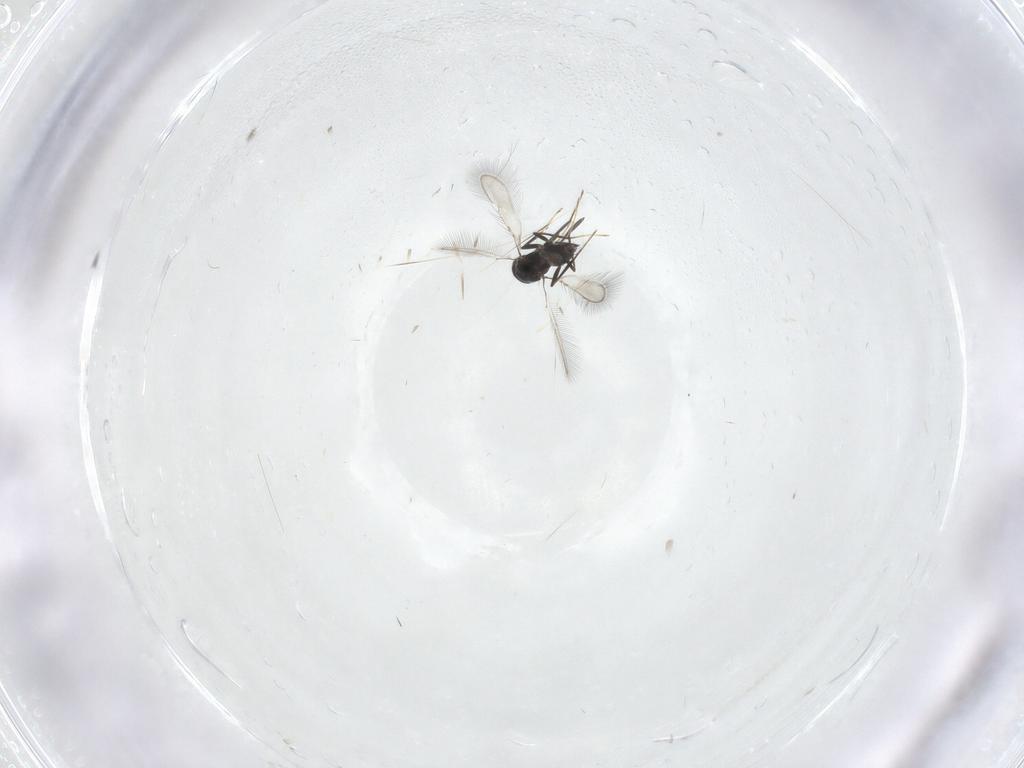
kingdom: Animalia
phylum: Arthropoda
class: Insecta
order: Hymenoptera
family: Mymaridae
